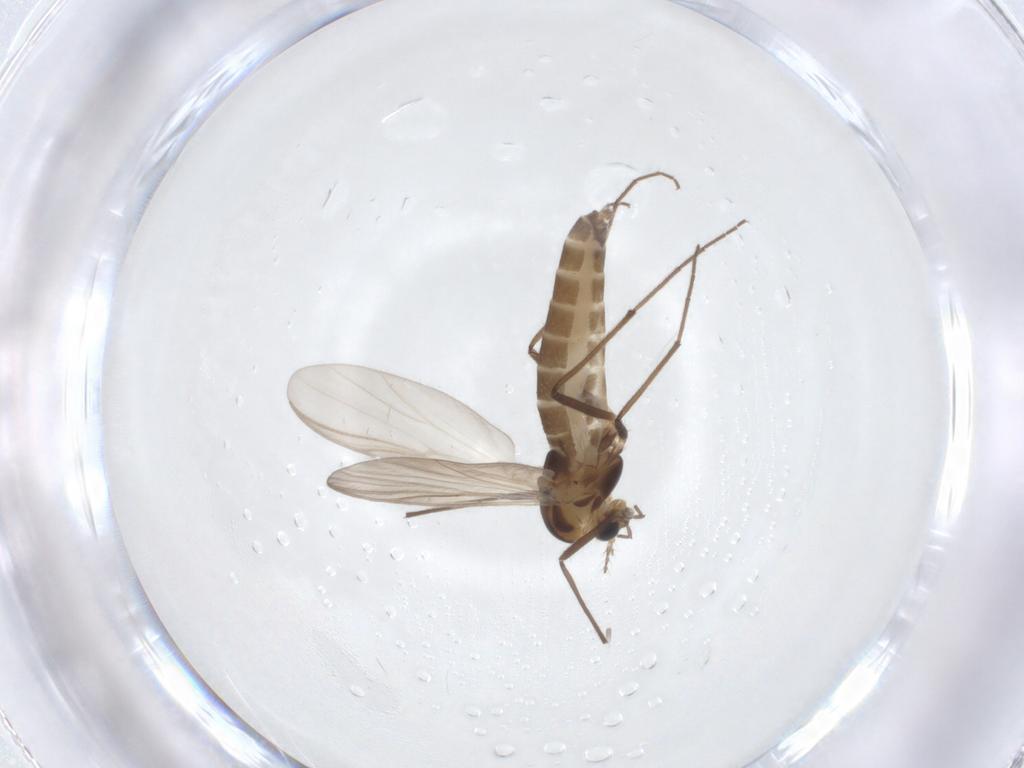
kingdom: Animalia
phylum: Arthropoda
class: Insecta
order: Diptera
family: Chironomidae
